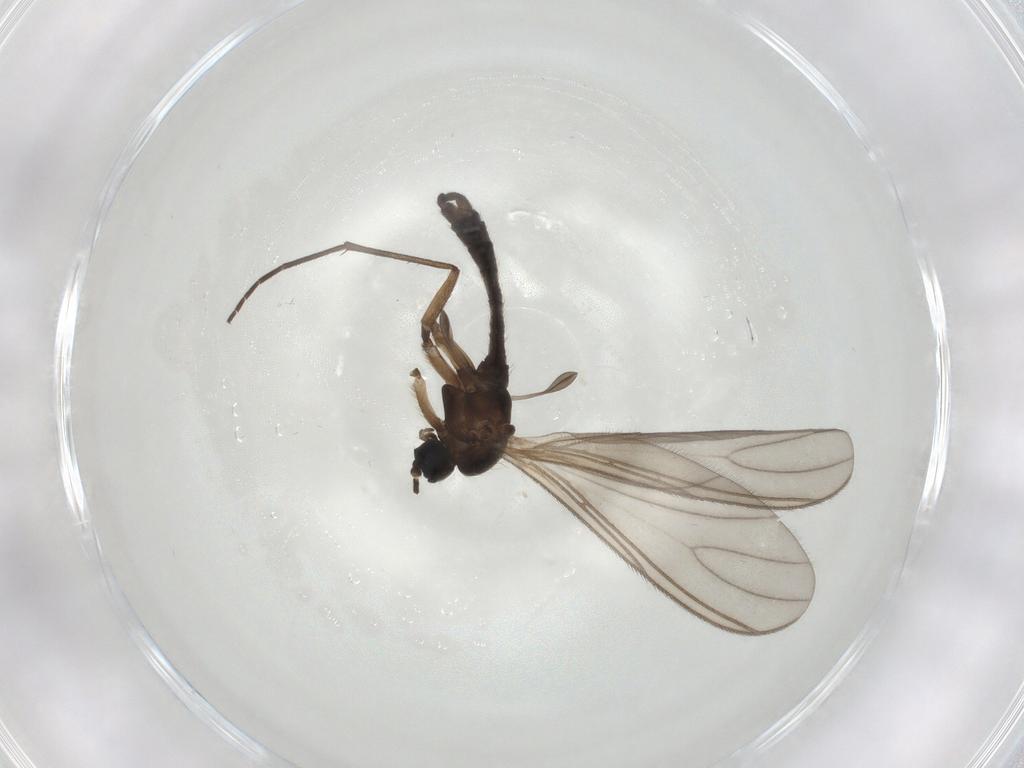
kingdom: Animalia
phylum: Arthropoda
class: Insecta
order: Diptera
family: Sciaridae
